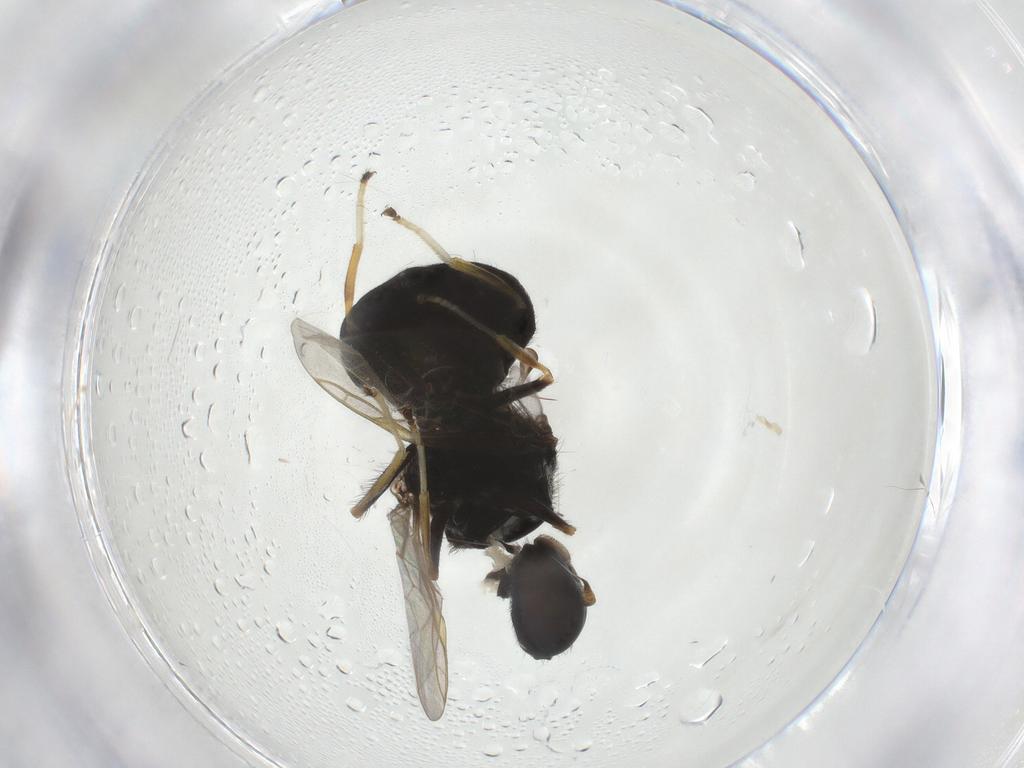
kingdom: Animalia
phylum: Arthropoda
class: Insecta
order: Diptera
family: Stratiomyidae
